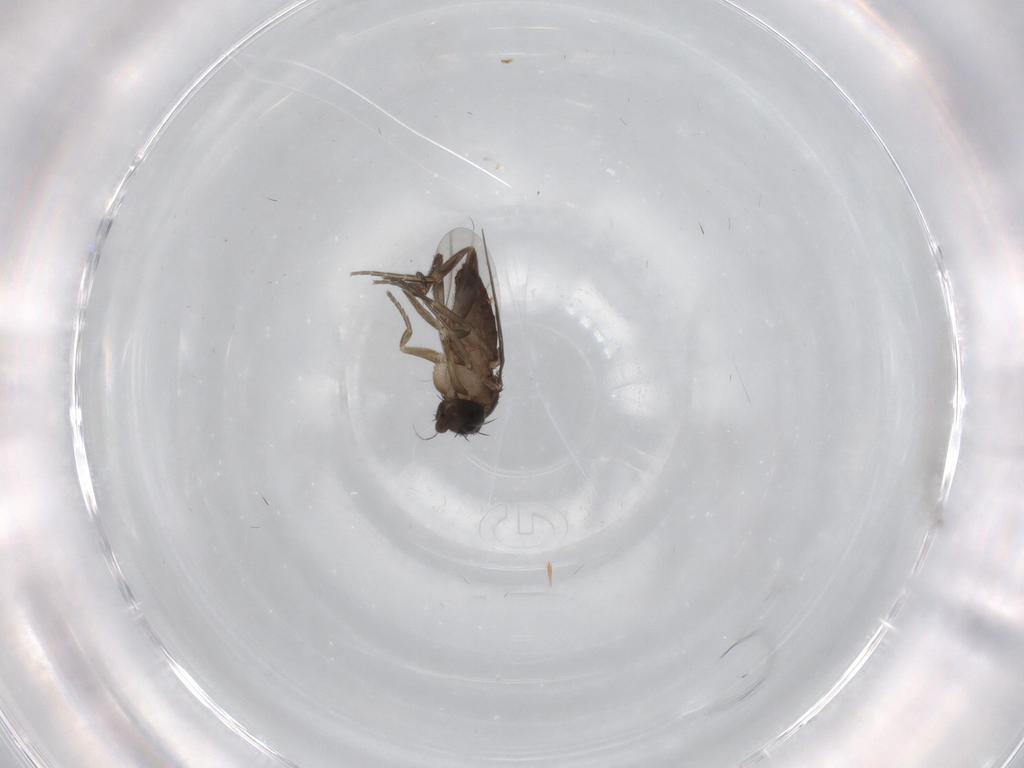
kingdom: Animalia
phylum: Arthropoda
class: Insecta
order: Diptera
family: Phoridae
